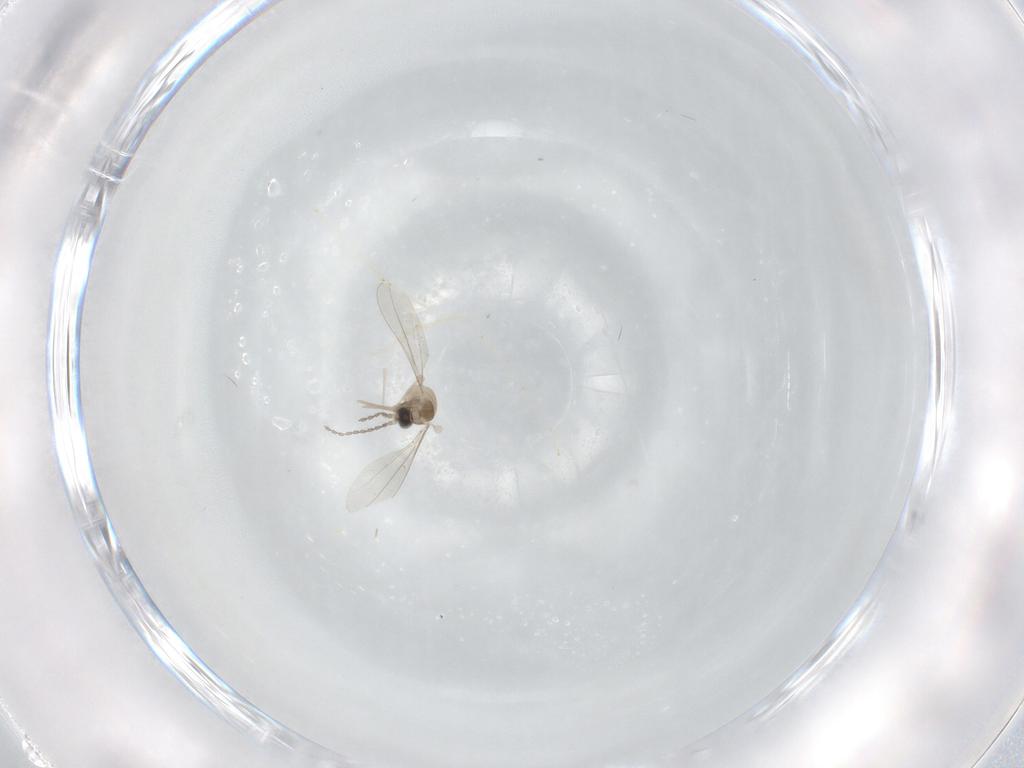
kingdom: Animalia
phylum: Arthropoda
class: Insecta
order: Diptera
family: Cecidomyiidae
